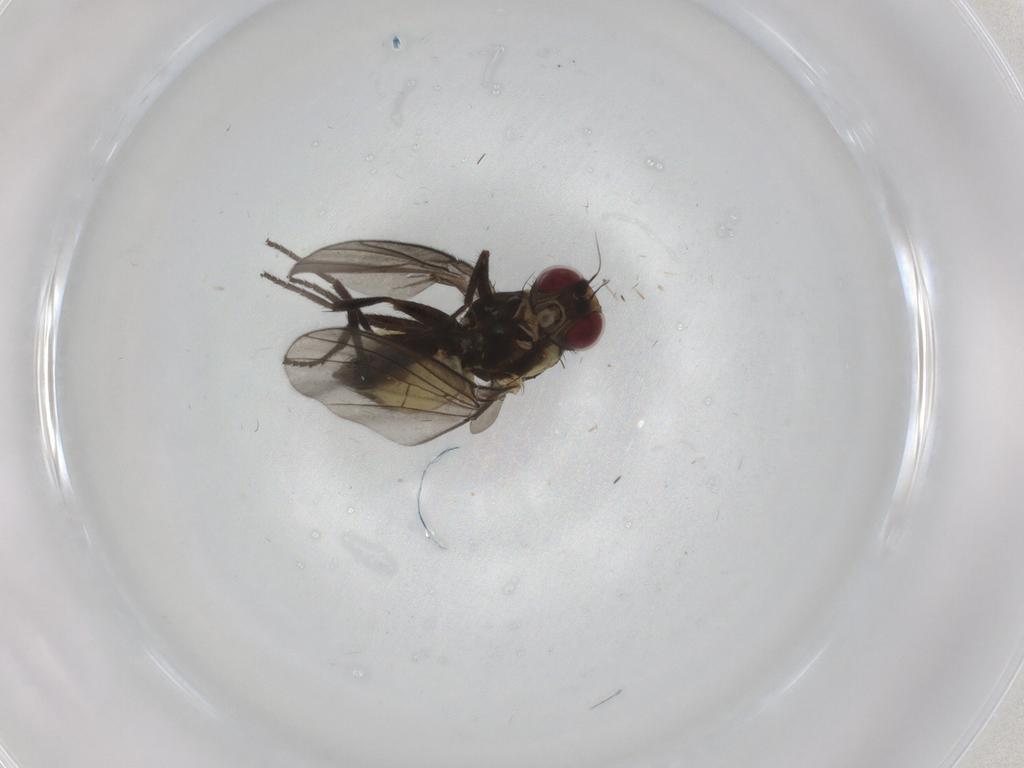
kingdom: Animalia
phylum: Arthropoda
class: Insecta
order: Diptera
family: Agromyzidae
